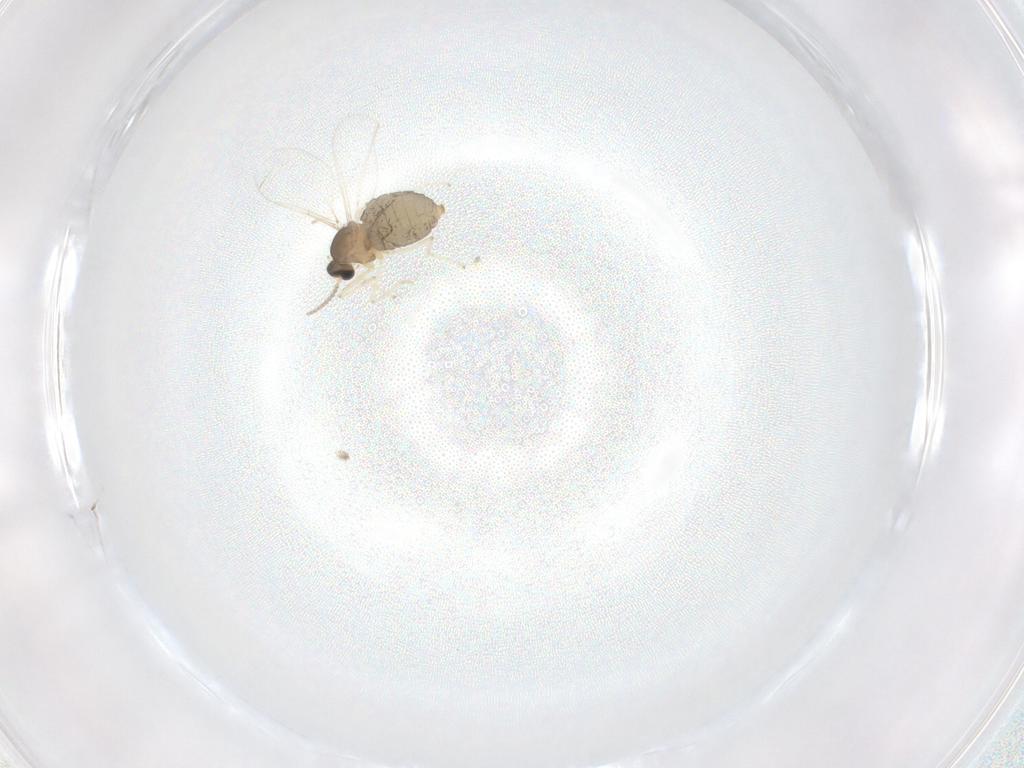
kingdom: Animalia
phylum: Arthropoda
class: Insecta
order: Diptera
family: Cecidomyiidae
